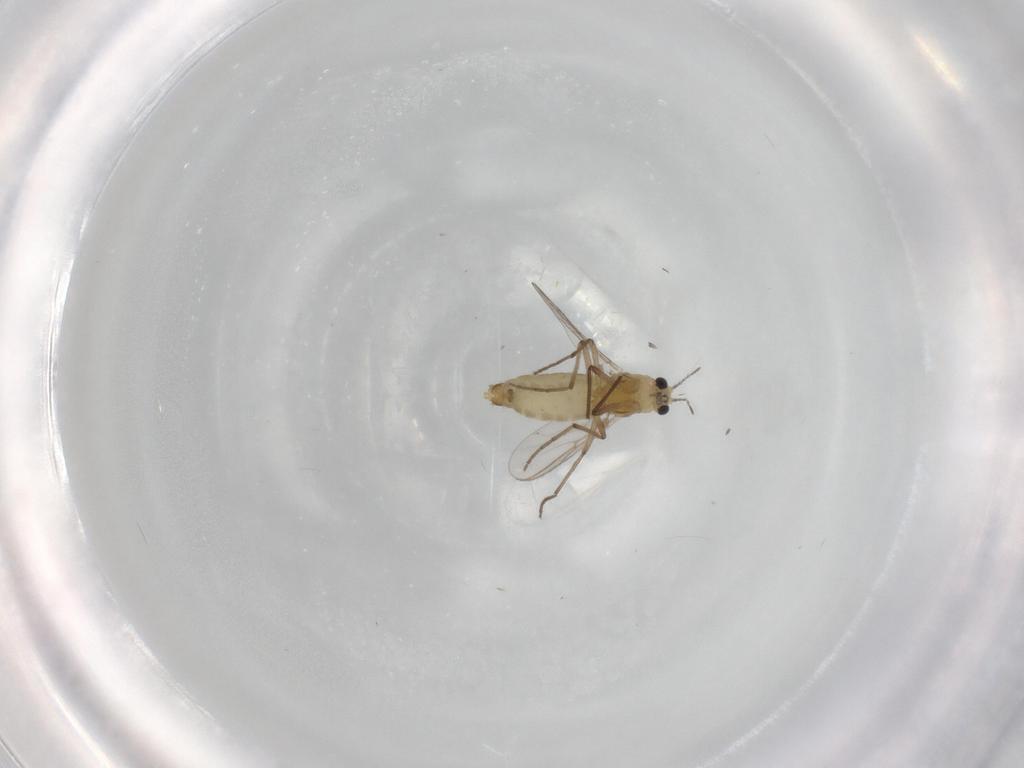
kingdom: Animalia
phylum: Arthropoda
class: Insecta
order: Diptera
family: Chironomidae
